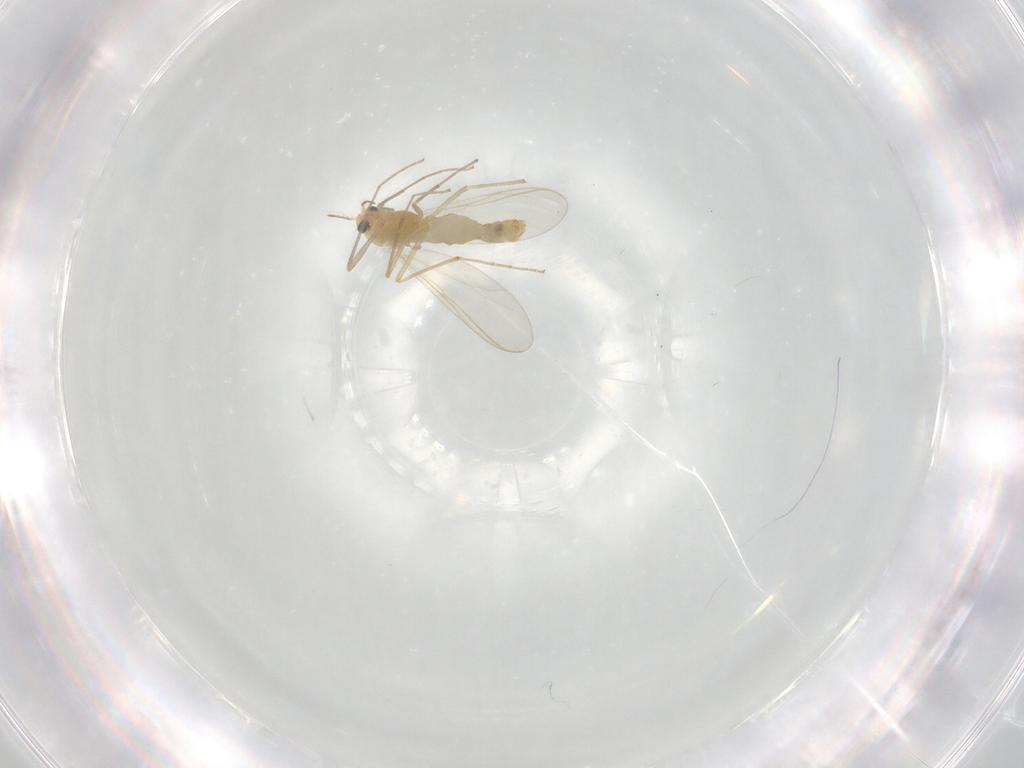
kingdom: Animalia
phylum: Arthropoda
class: Insecta
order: Diptera
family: Chironomidae
